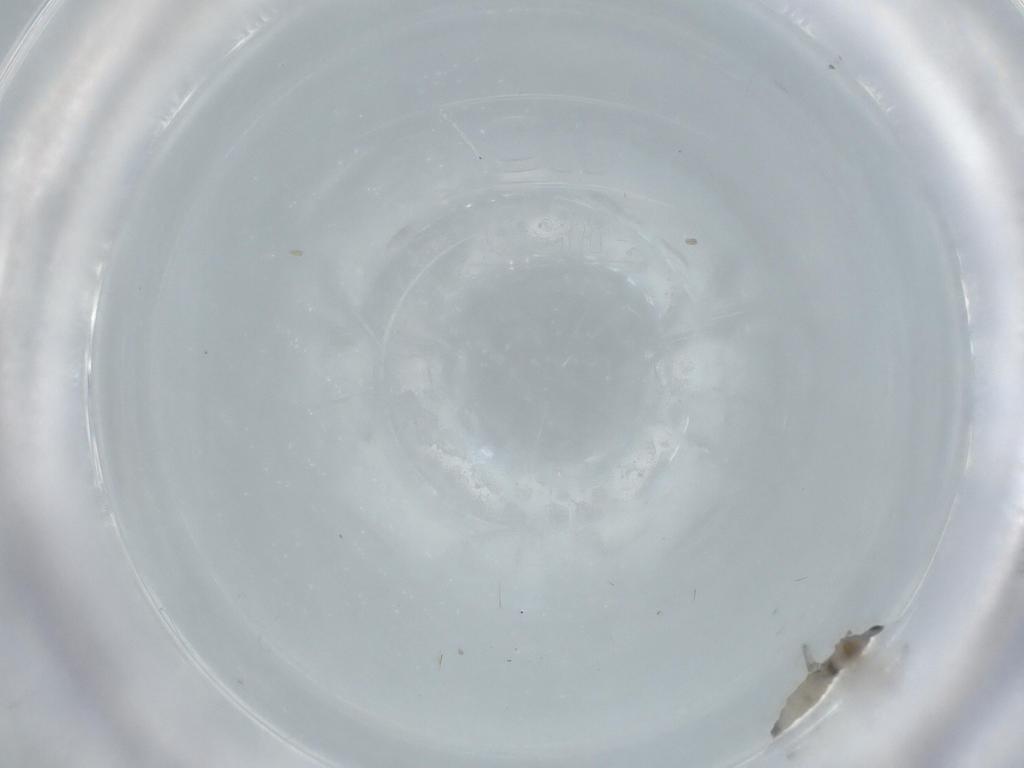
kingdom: Animalia
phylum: Arthropoda
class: Insecta
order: Diptera
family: Cecidomyiidae
